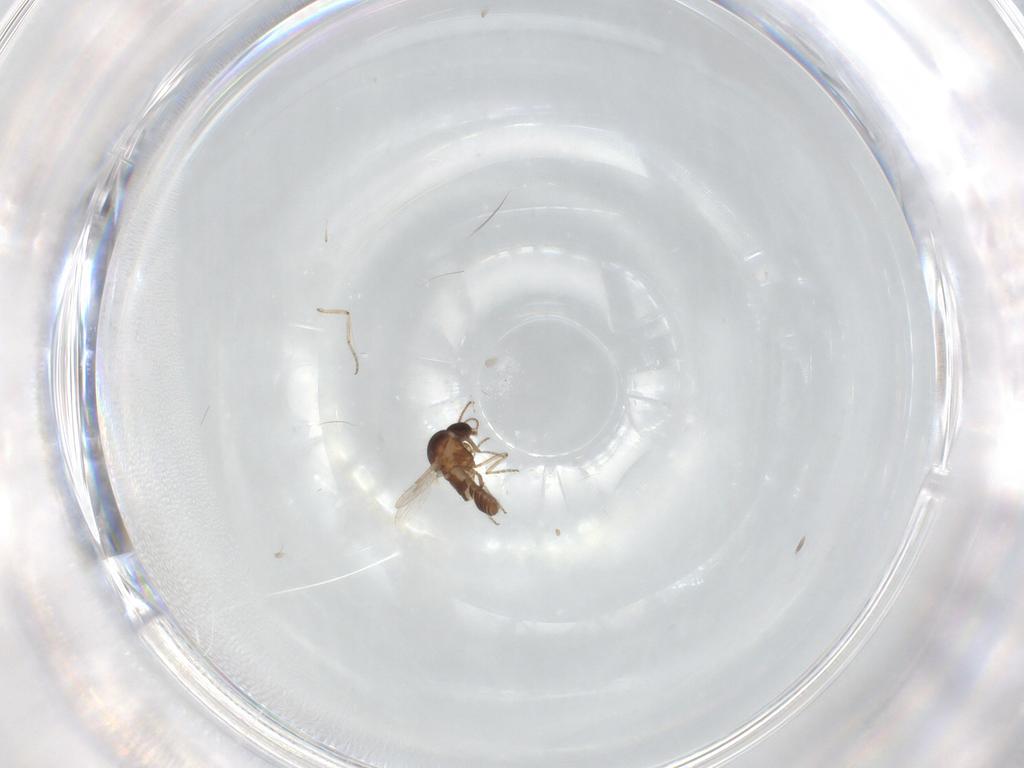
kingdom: Animalia
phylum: Arthropoda
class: Insecta
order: Diptera
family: Ceratopogonidae
